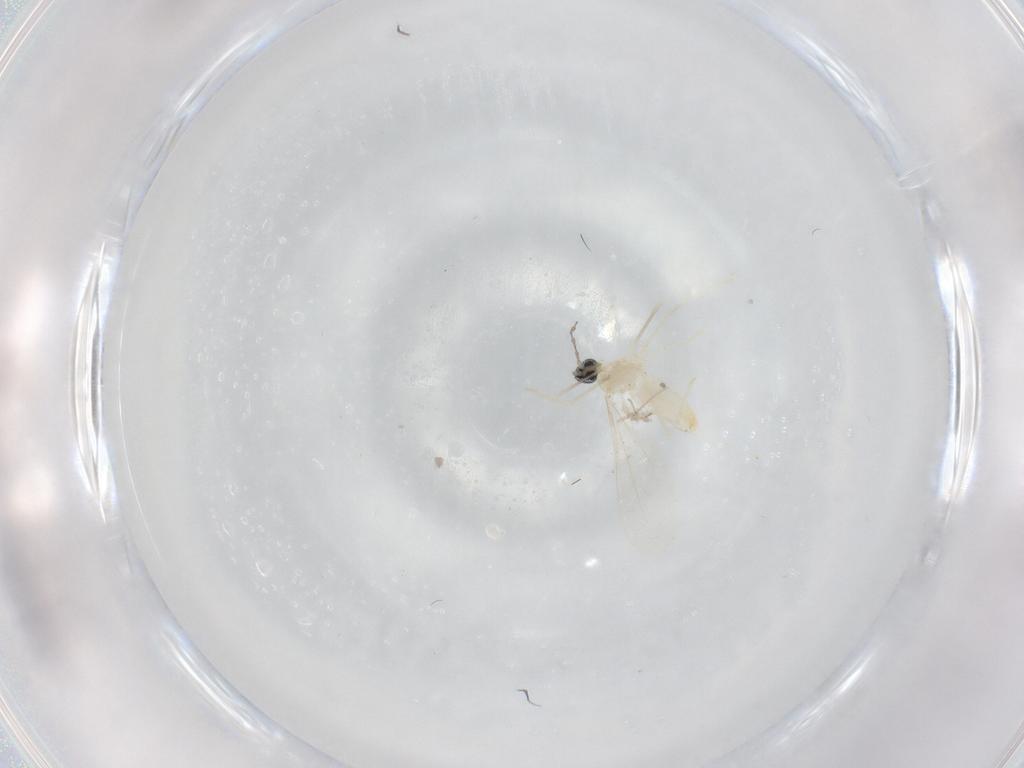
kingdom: Animalia
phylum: Arthropoda
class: Insecta
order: Diptera
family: Cecidomyiidae
